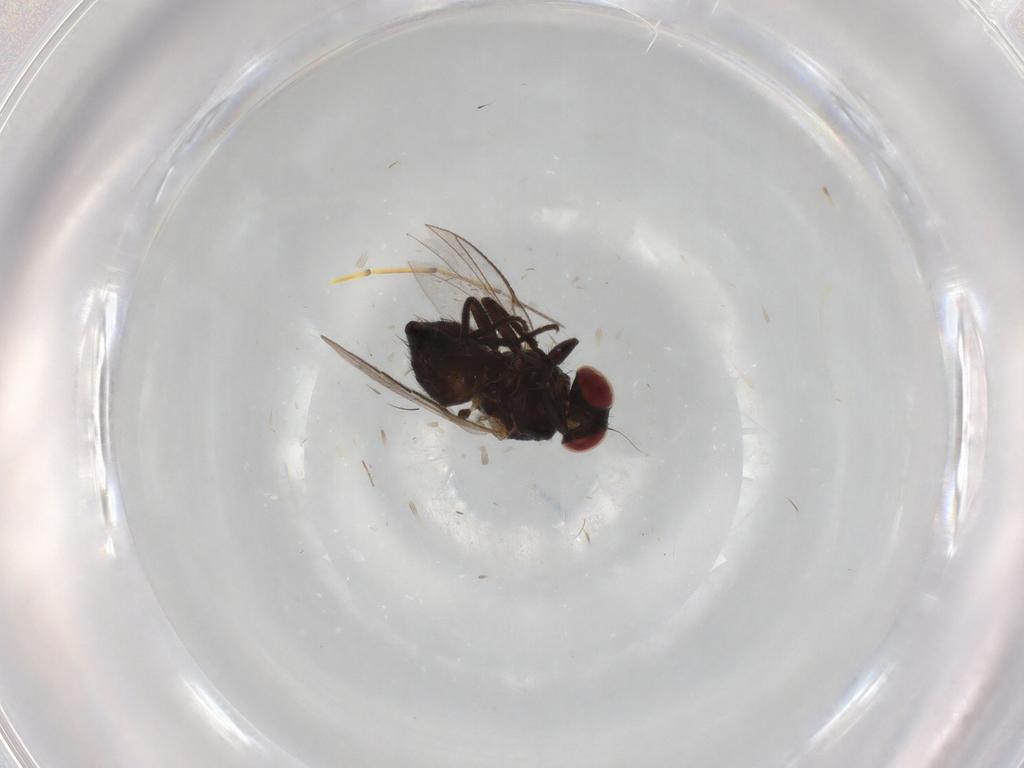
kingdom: Animalia
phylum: Arthropoda
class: Insecta
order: Diptera
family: Agromyzidae
